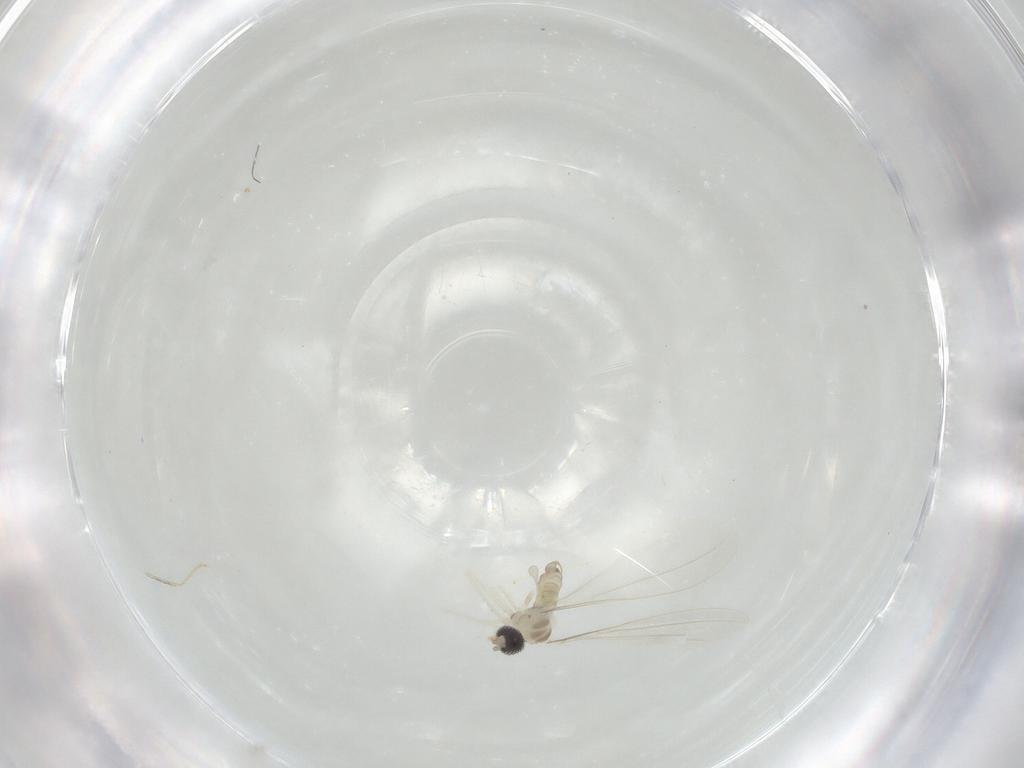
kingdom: Animalia
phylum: Arthropoda
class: Insecta
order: Diptera
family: Cecidomyiidae
